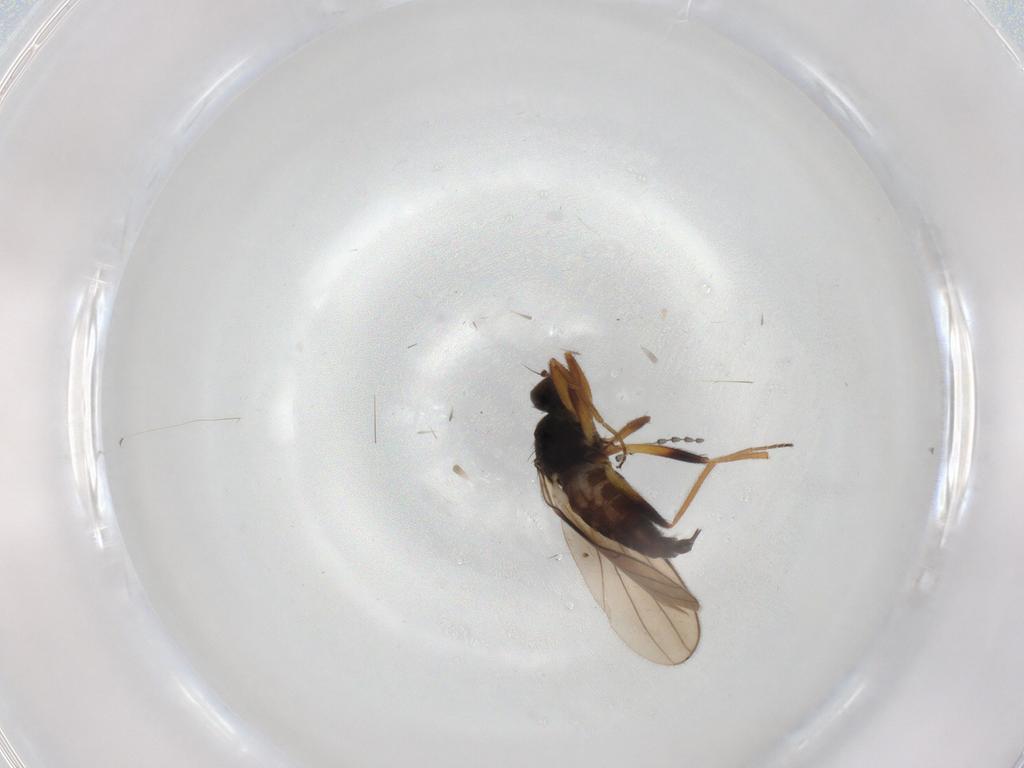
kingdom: Animalia
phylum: Arthropoda
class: Insecta
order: Diptera
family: Hybotidae
